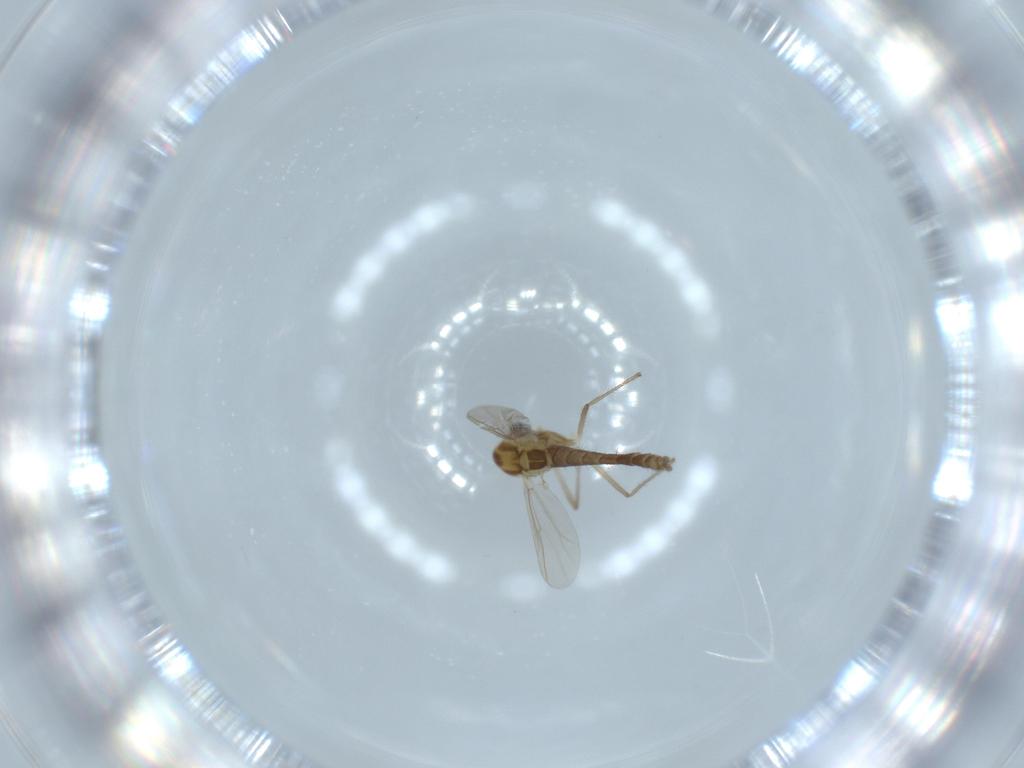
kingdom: Animalia
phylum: Arthropoda
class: Insecta
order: Diptera
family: Chironomidae
